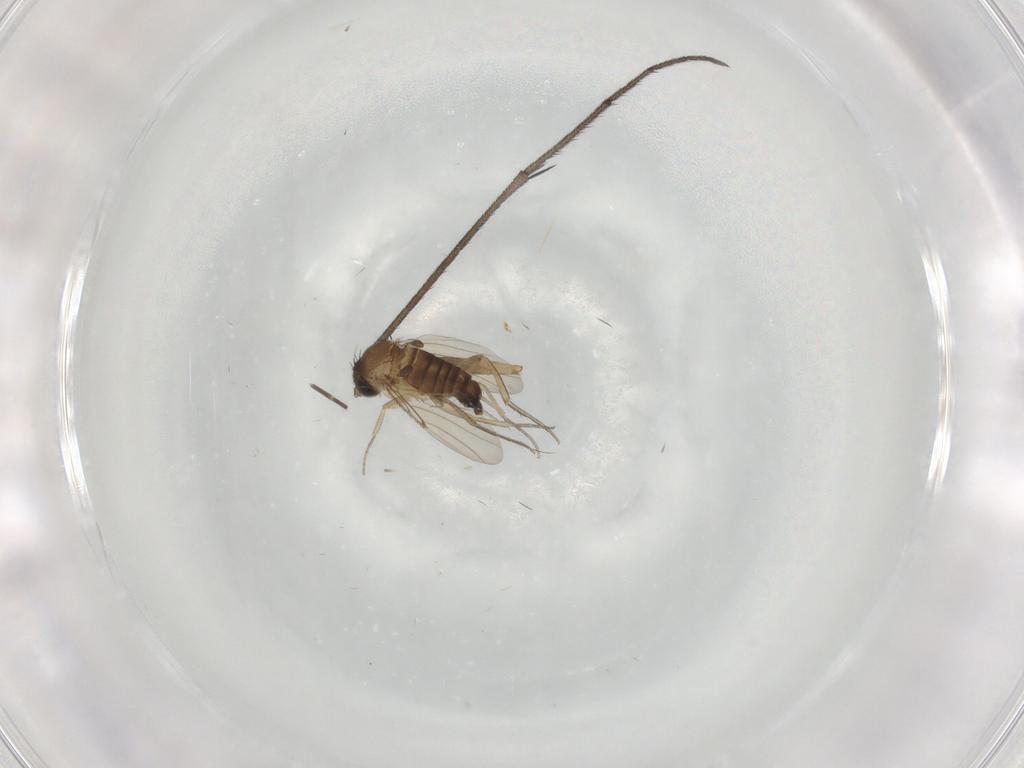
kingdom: Animalia
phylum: Arthropoda
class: Insecta
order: Diptera
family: Phoridae
